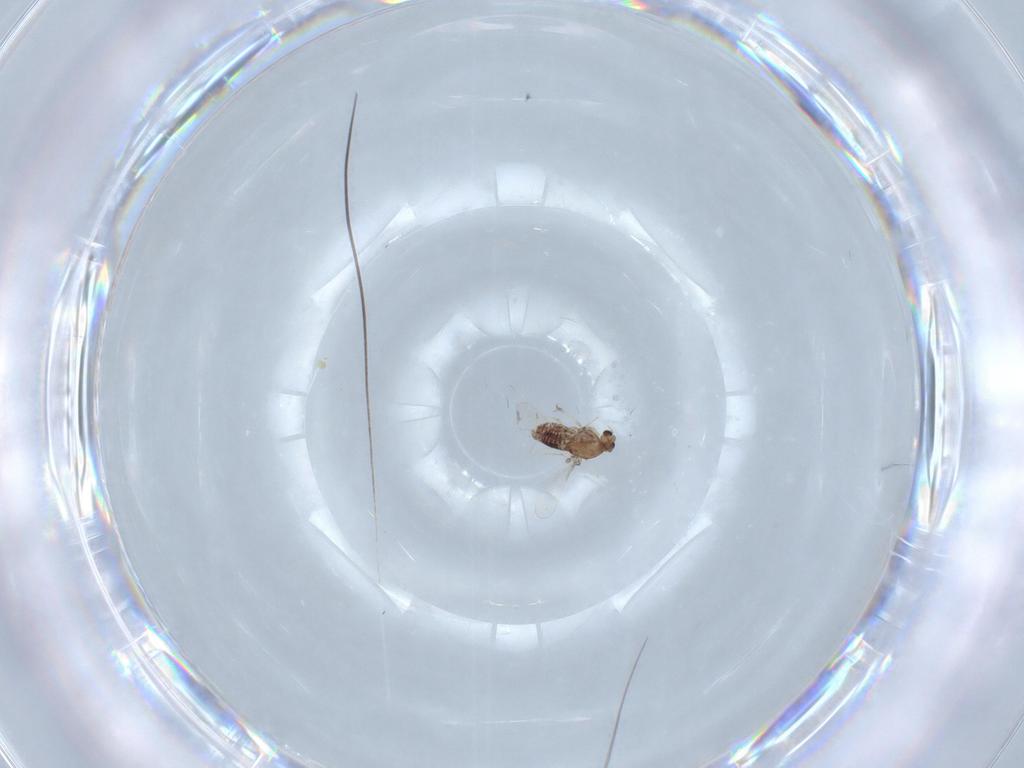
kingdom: Animalia
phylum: Arthropoda
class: Insecta
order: Diptera
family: Chironomidae
